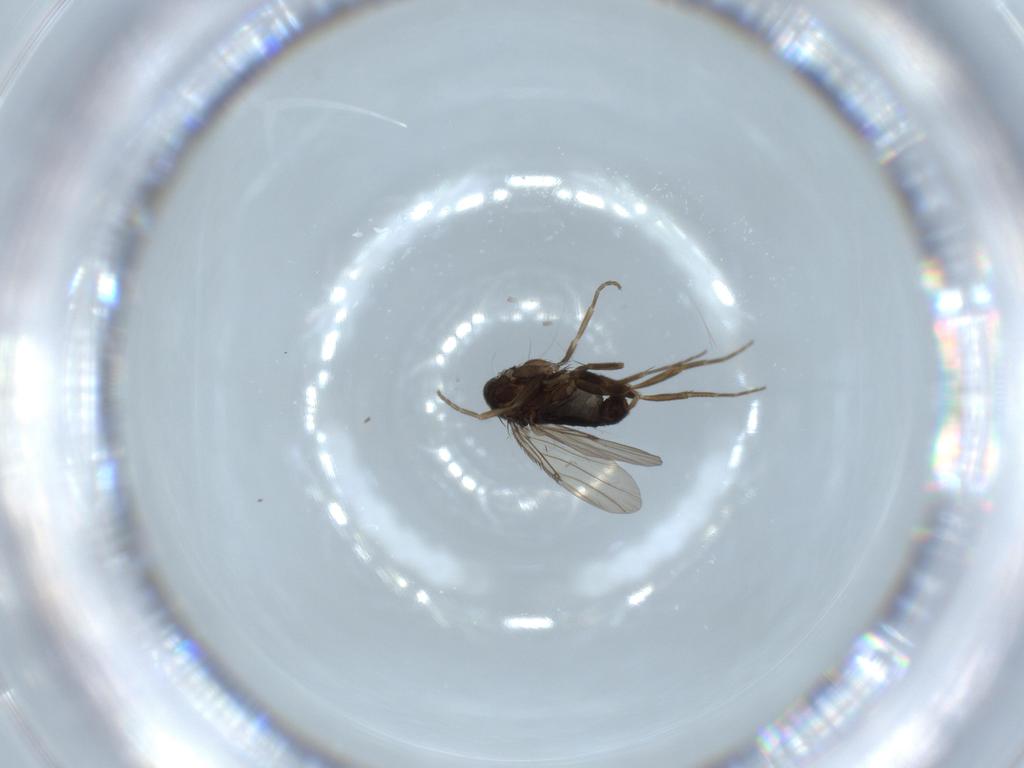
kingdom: Animalia
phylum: Arthropoda
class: Insecta
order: Diptera
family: Phoridae
